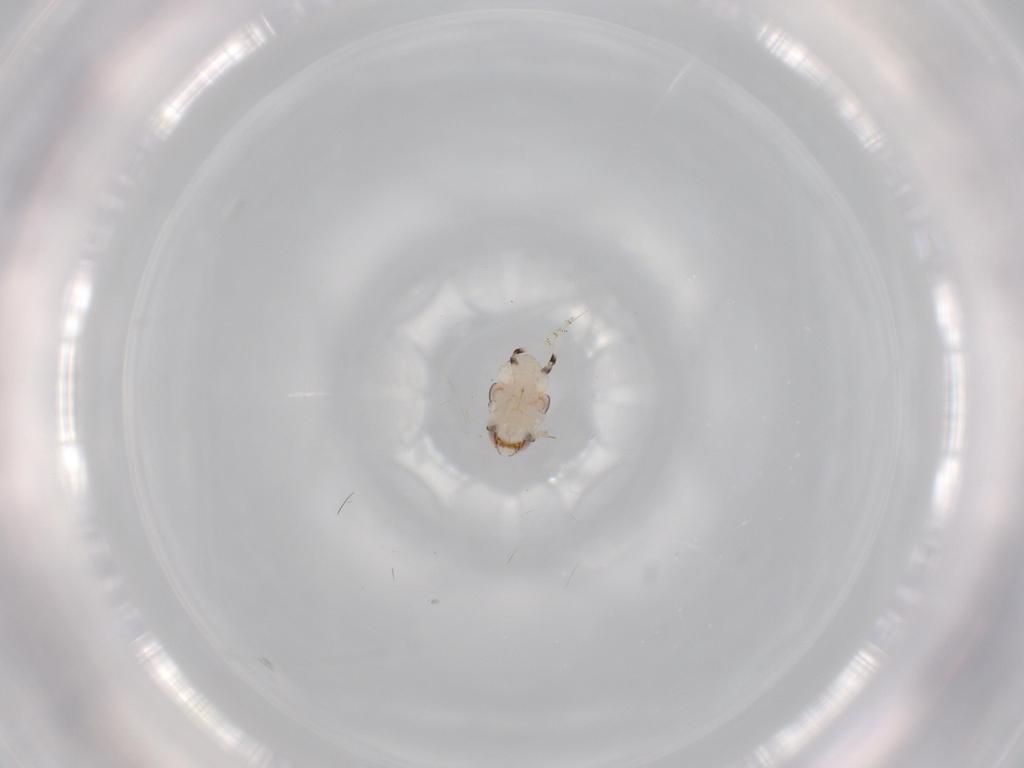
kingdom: Animalia
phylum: Arthropoda
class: Insecta
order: Hemiptera
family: Nogodinidae
